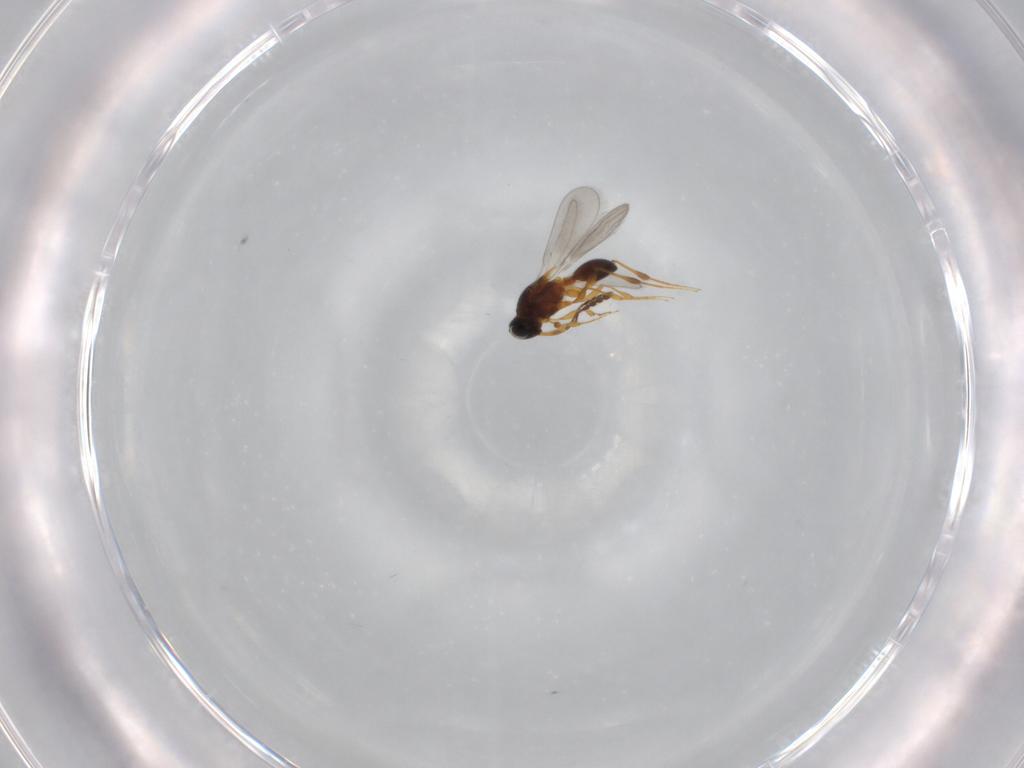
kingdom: Animalia
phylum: Arthropoda
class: Insecta
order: Hymenoptera
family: Platygastridae
